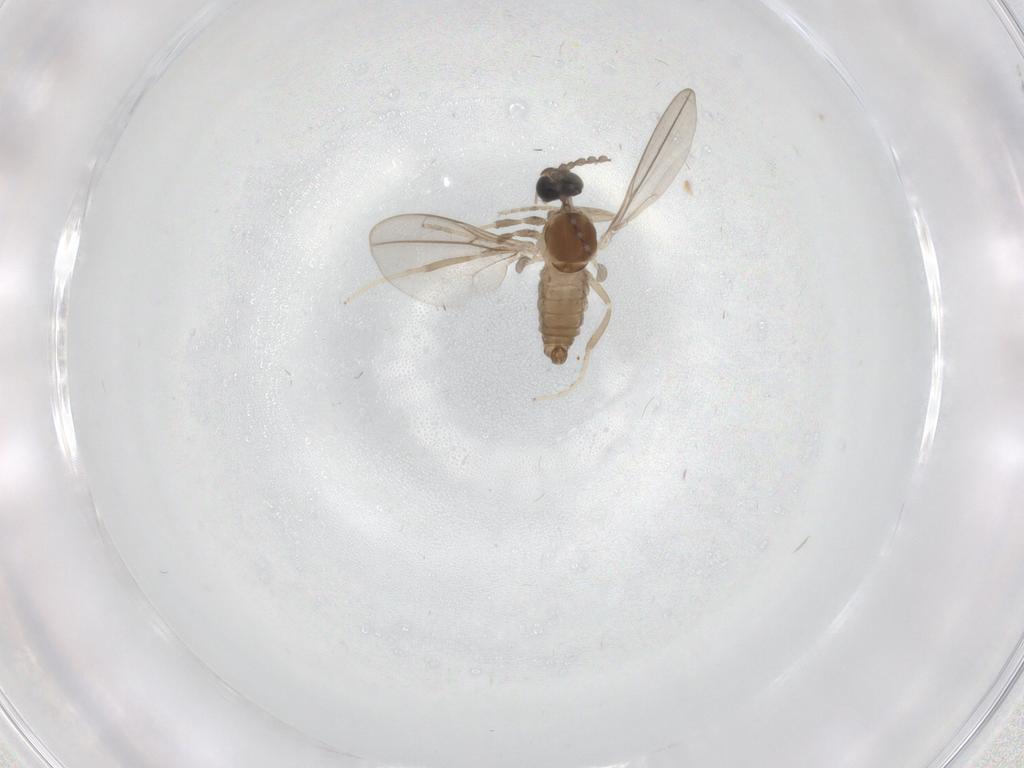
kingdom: Animalia
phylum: Arthropoda
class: Insecta
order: Diptera
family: Cecidomyiidae
